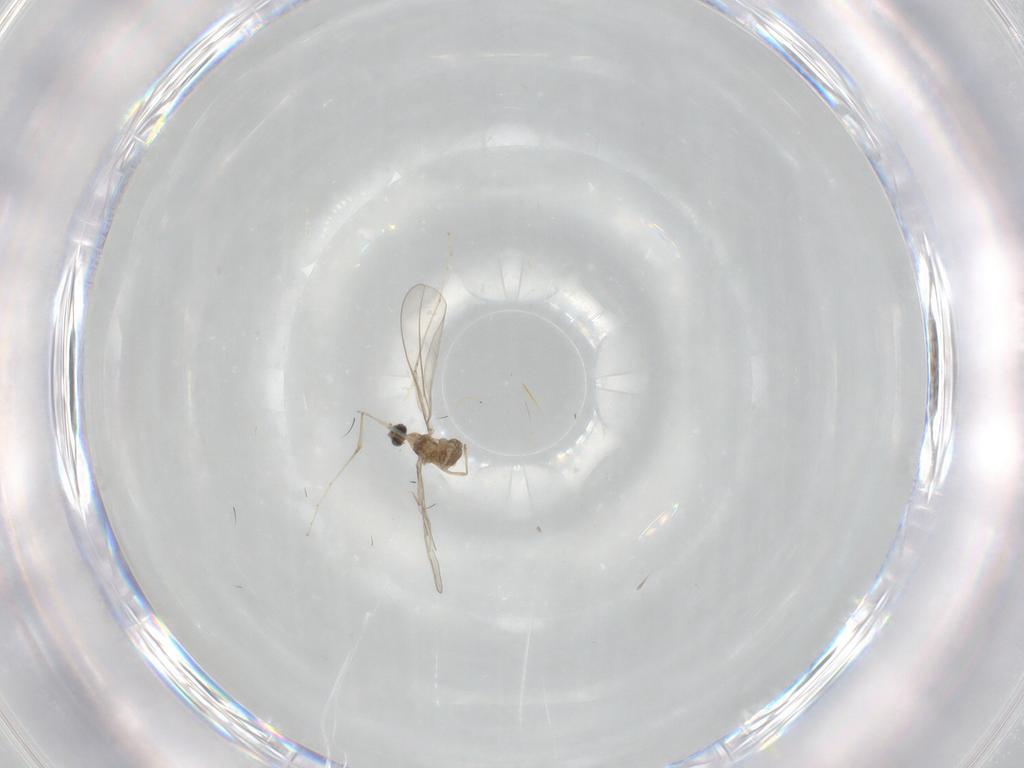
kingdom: Animalia
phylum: Arthropoda
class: Insecta
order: Diptera
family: Cecidomyiidae
